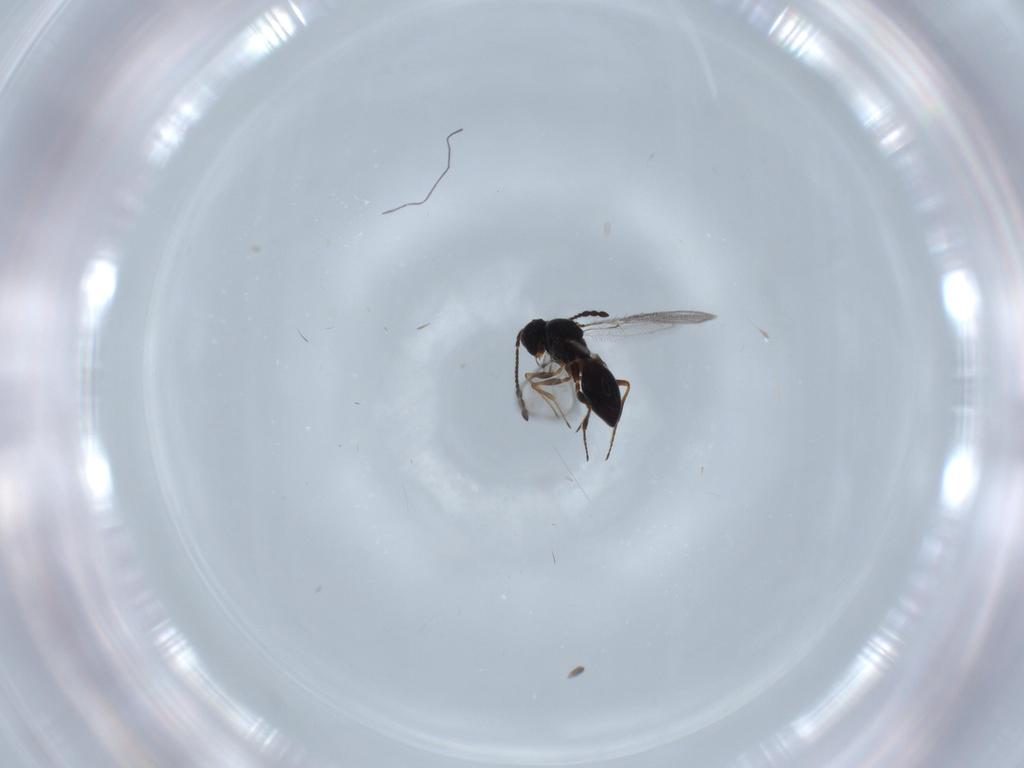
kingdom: Animalia
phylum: Arthropoda
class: Insecta
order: Hymenoptera
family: Figitidae
